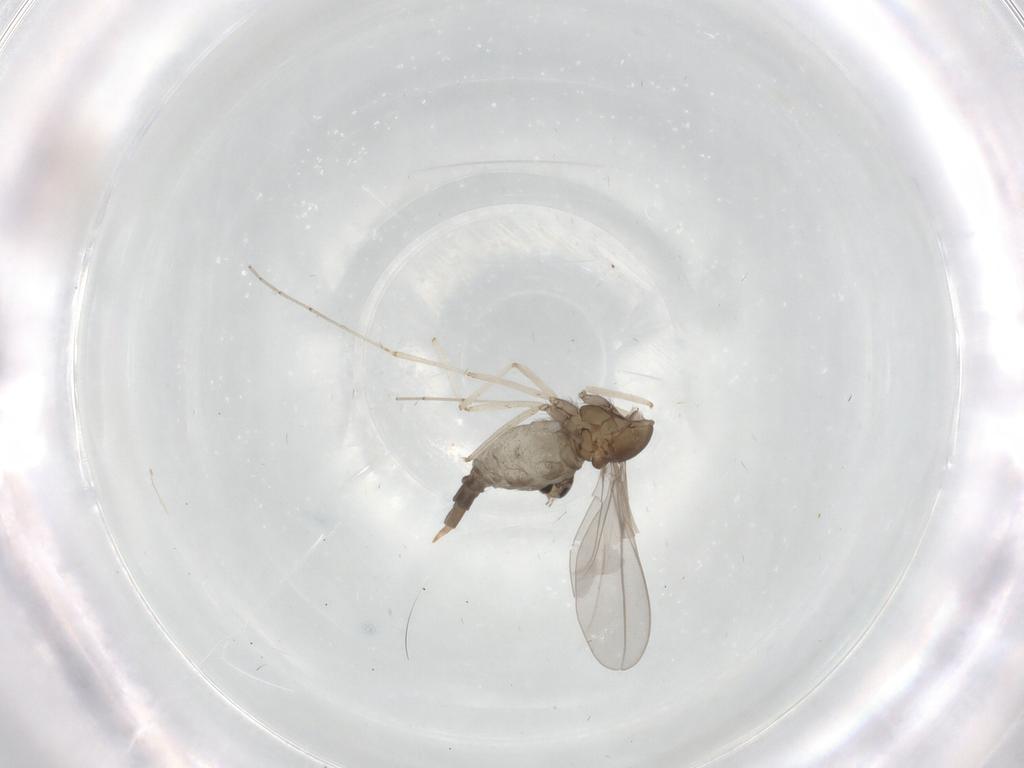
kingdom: Animalia
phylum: Arthropoda
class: Insecta
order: Diptera
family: Cecidomyiidae
